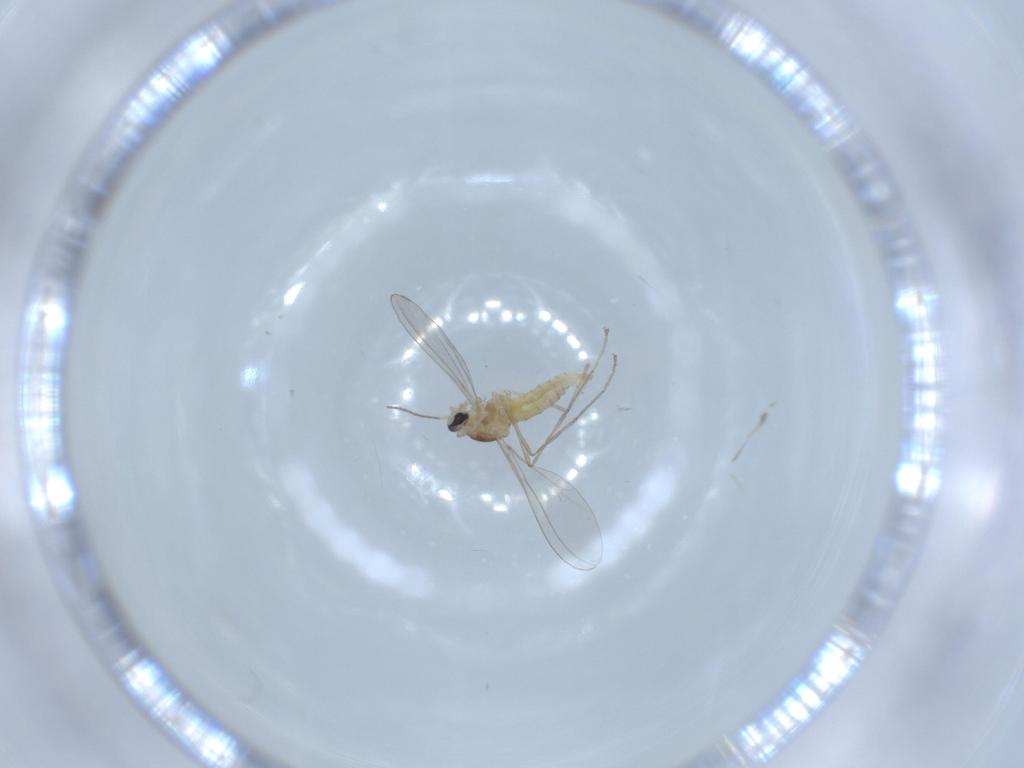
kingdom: Animalia
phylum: Arthropoda
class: Insecta
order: Diptera
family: Cecidomyiidae
